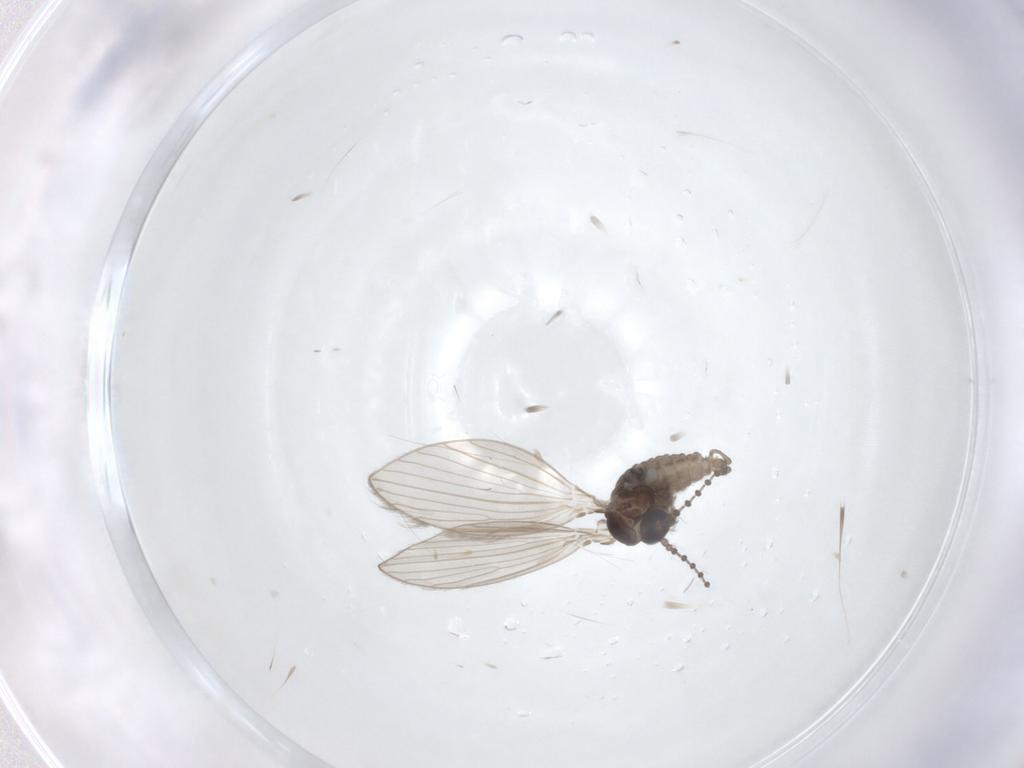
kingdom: Animalia
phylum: Arthropoda
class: Insecta
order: Diptera
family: Psychodidae
